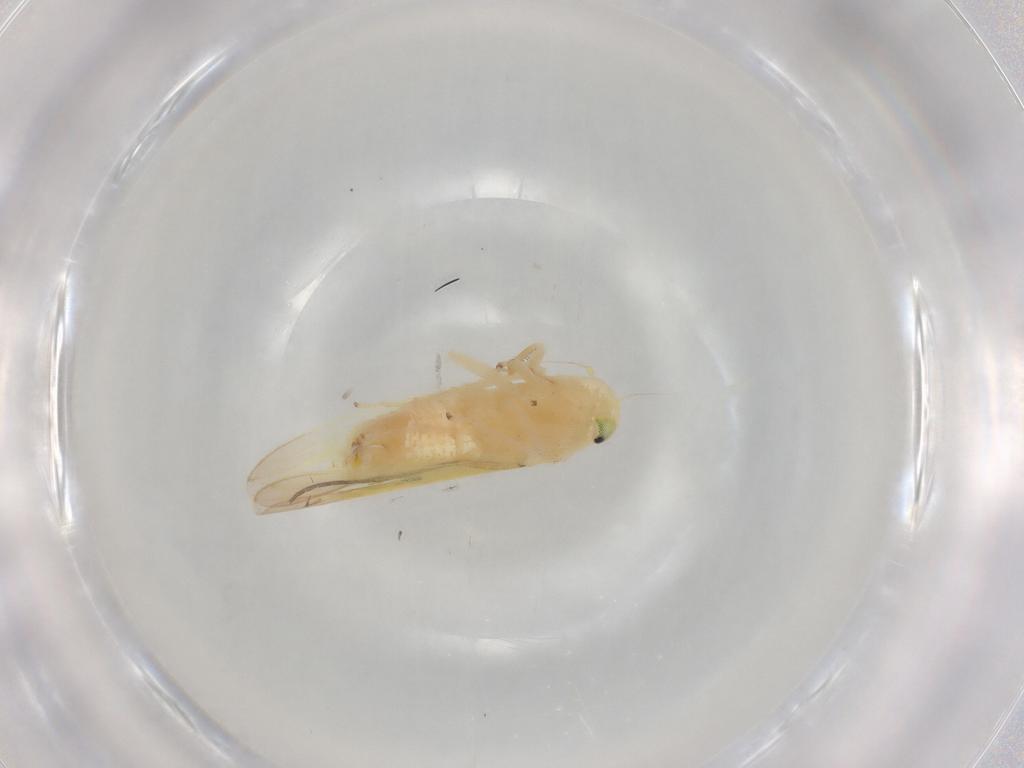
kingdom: Animalia
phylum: Arthropoda
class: Insecta
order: Hemiptera
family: Cicadellidae
